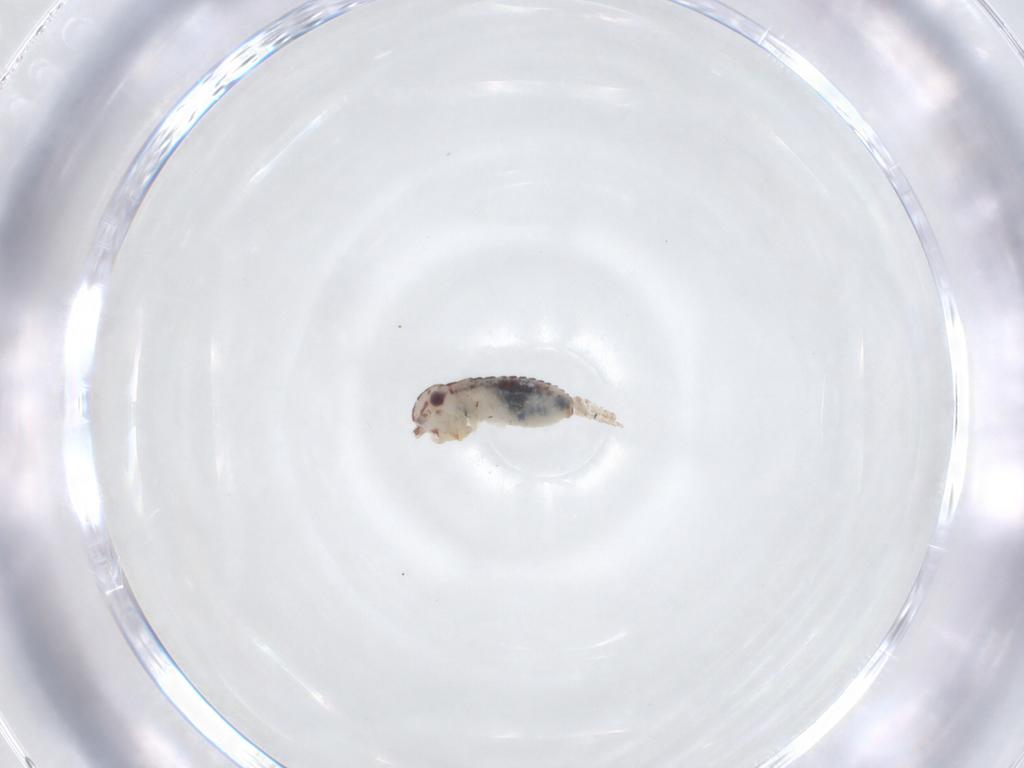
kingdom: Animalia
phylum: Arthropoda
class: Insecta
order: Orthoptera
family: Trigonidiidae
